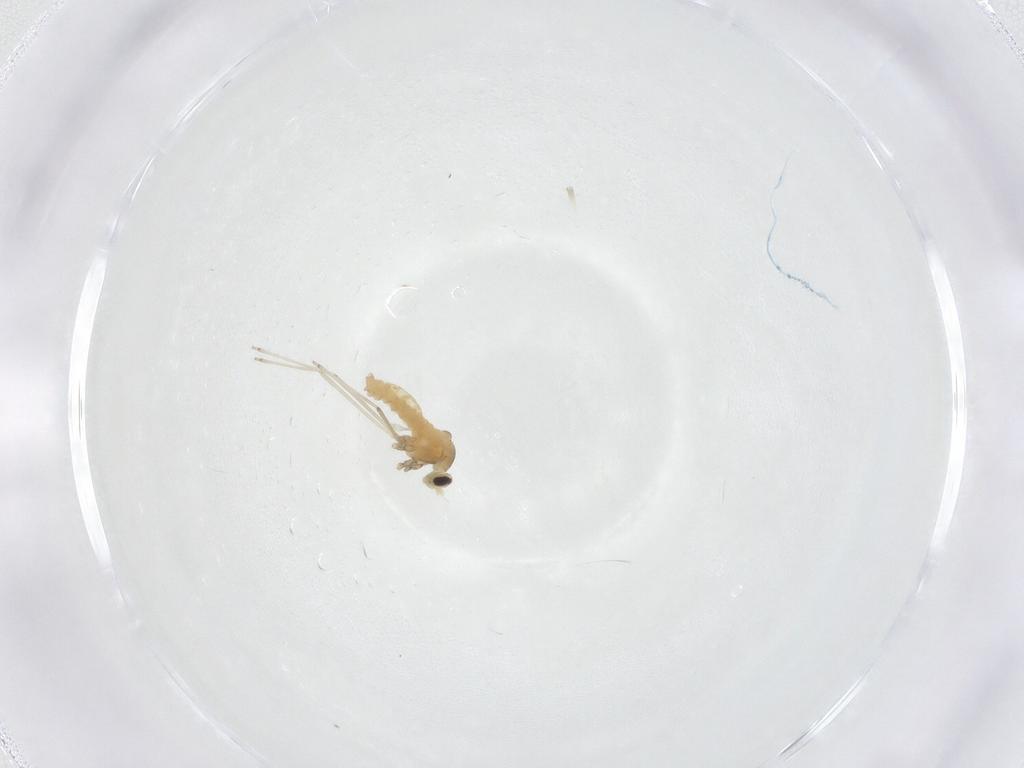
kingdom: Animalia
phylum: Arthropoda
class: Insecta
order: Diptera
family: Cecidomyiidae
